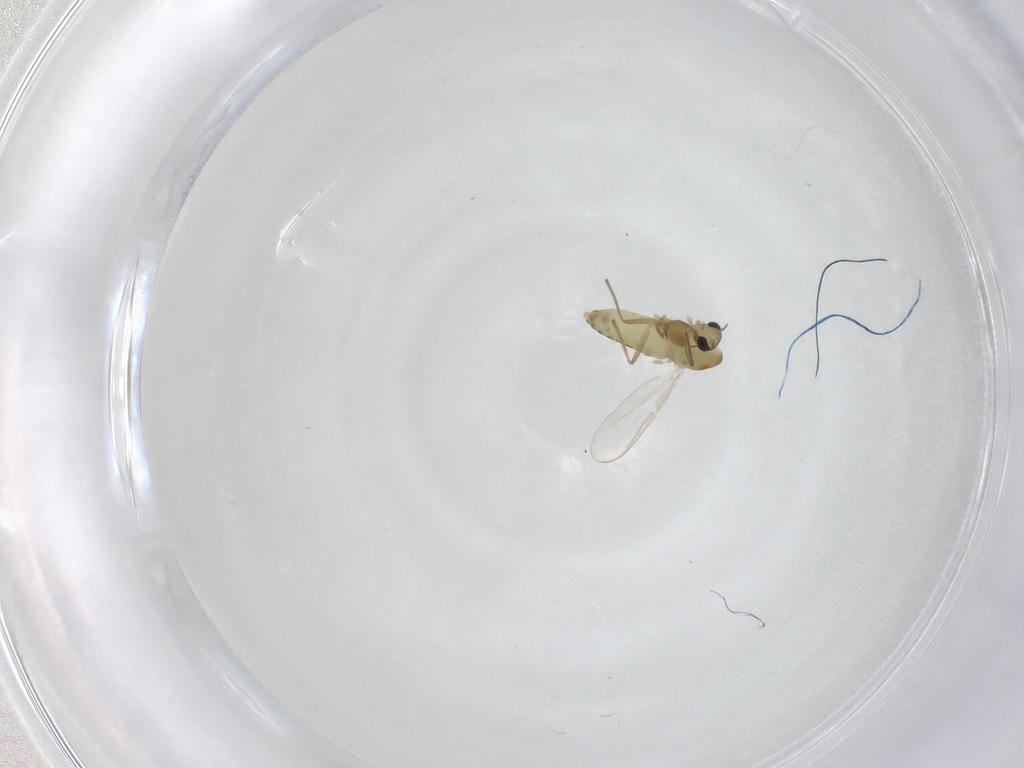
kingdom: Animalia
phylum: Arthropoda
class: Insecta
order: Diptera
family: Chironomidae
